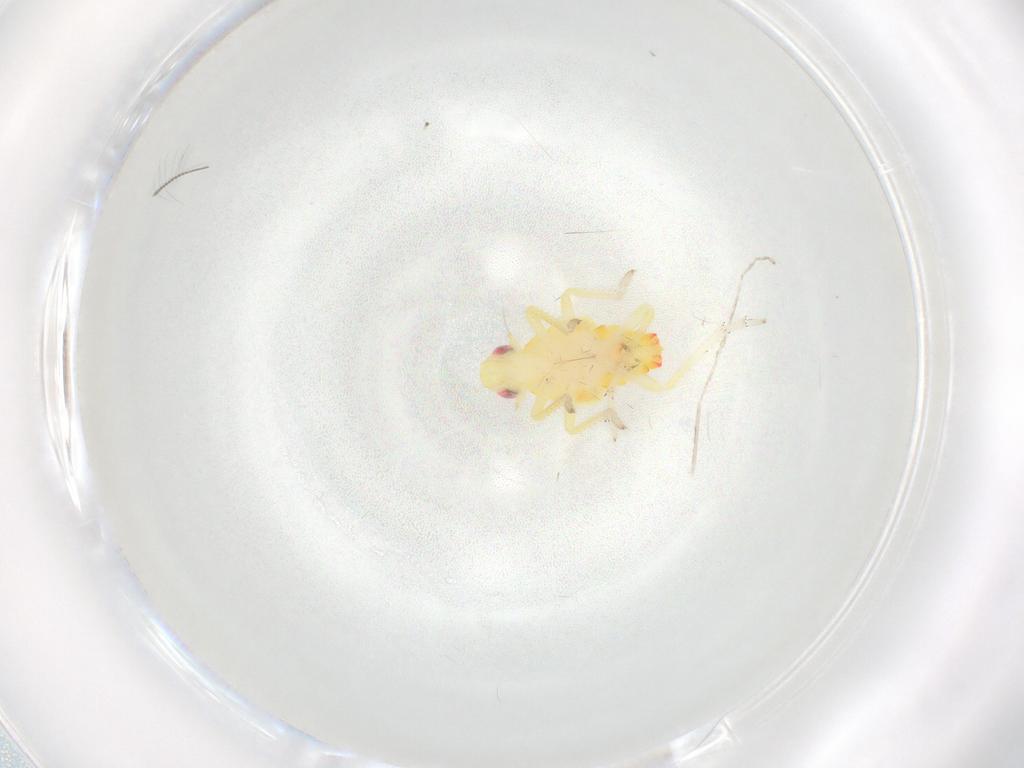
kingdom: Animalia
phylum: Arthropoda
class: Insecta
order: Hemiptera
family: Tropiduchidae
